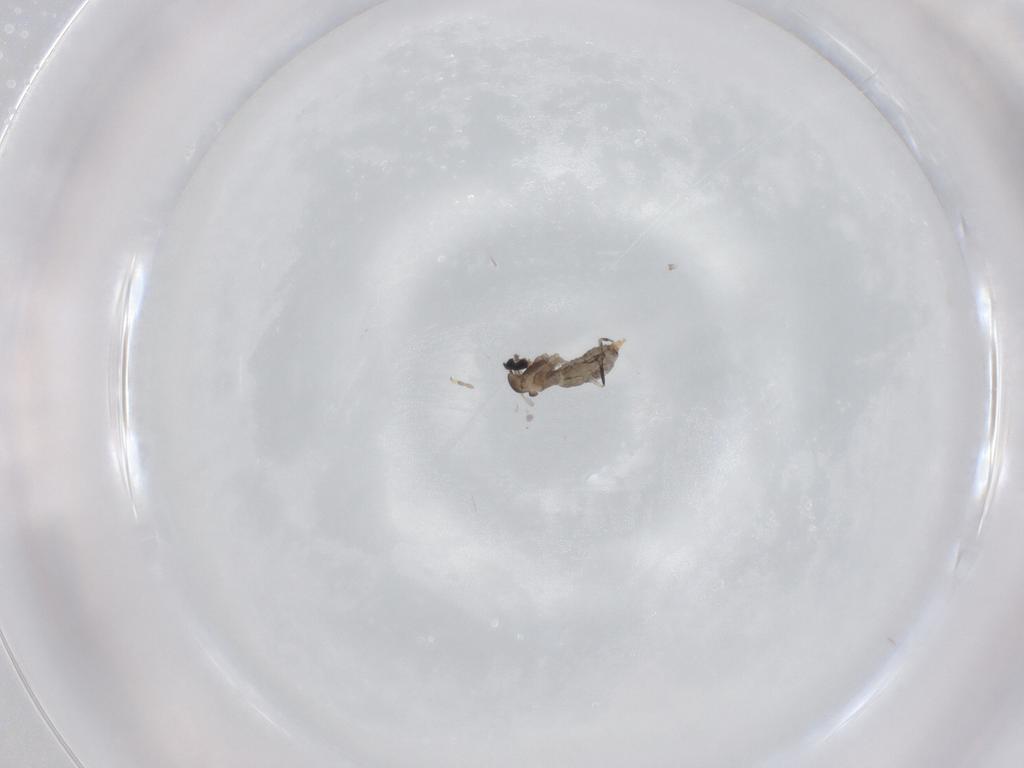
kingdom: Animalia
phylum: Arthropoda
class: Insecta
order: Diptera
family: Cecidomyiidae
